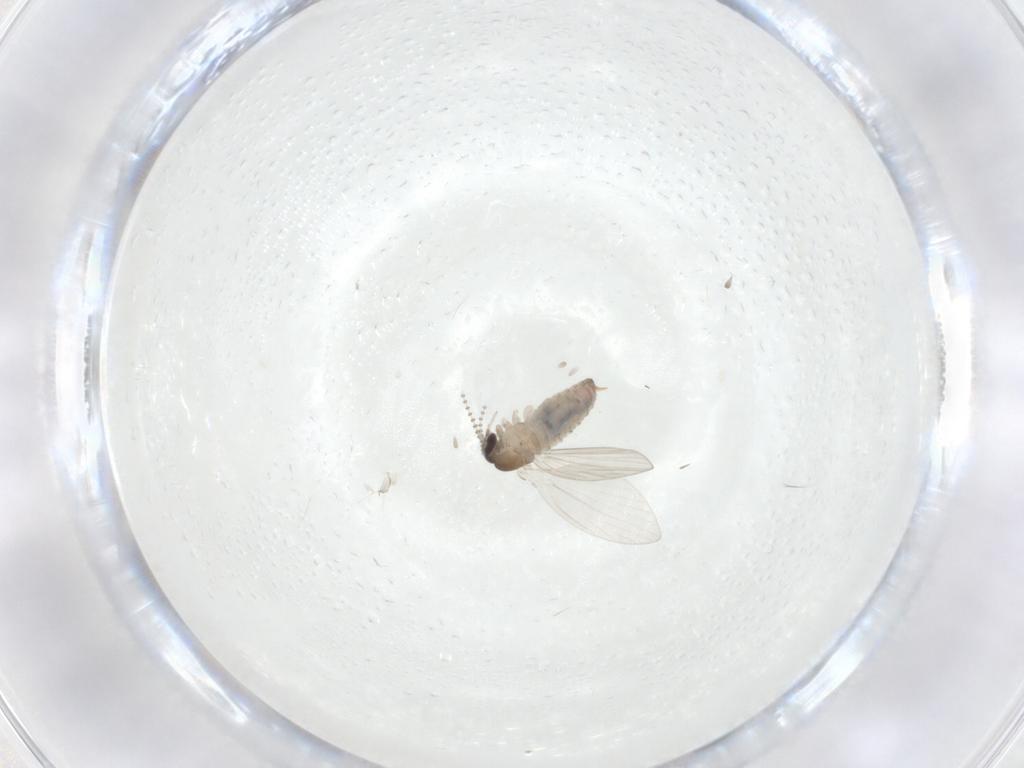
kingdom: Animalia
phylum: Arthropoda
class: Insecta
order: Diptera
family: Psychodidae
